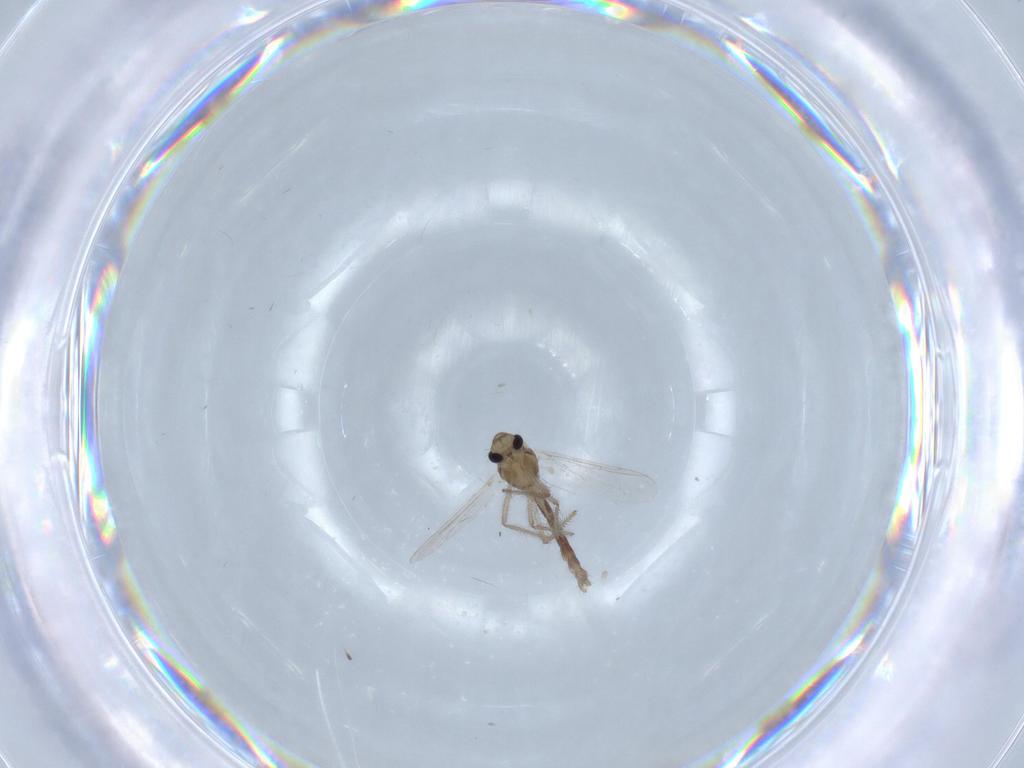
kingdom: Animalia
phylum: Arthropoda
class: Insecta
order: Diptera
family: Chironomidae
